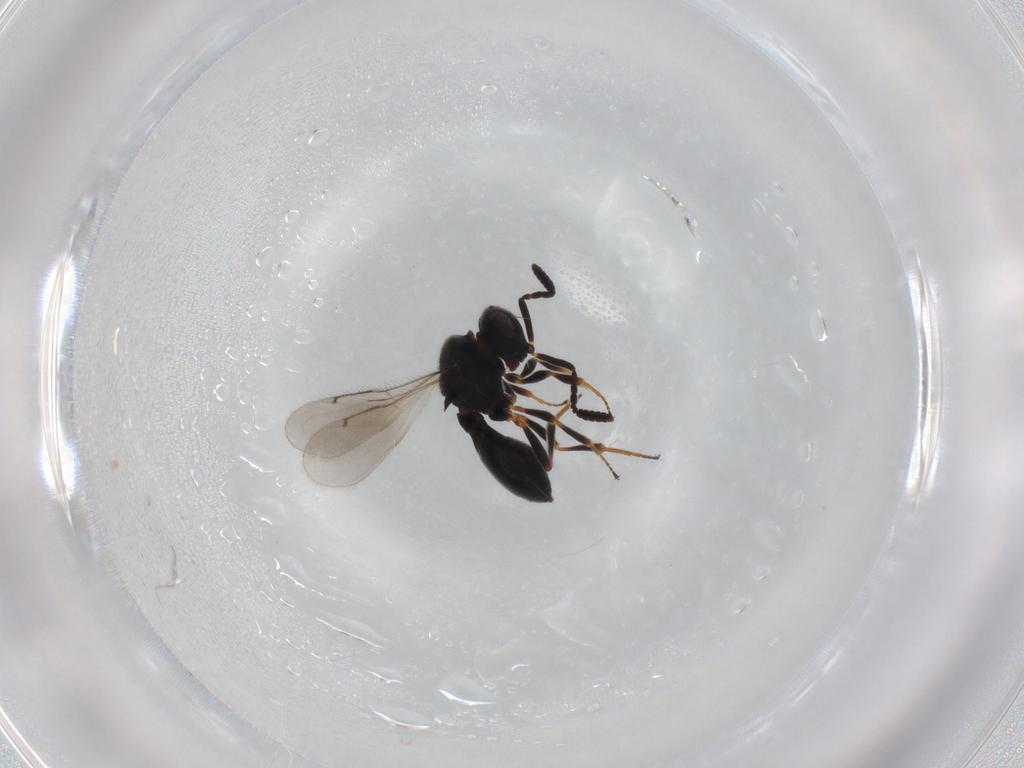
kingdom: Animalia
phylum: Arthropoda
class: Insecta
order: Hymenoptera
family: Scelionidae
